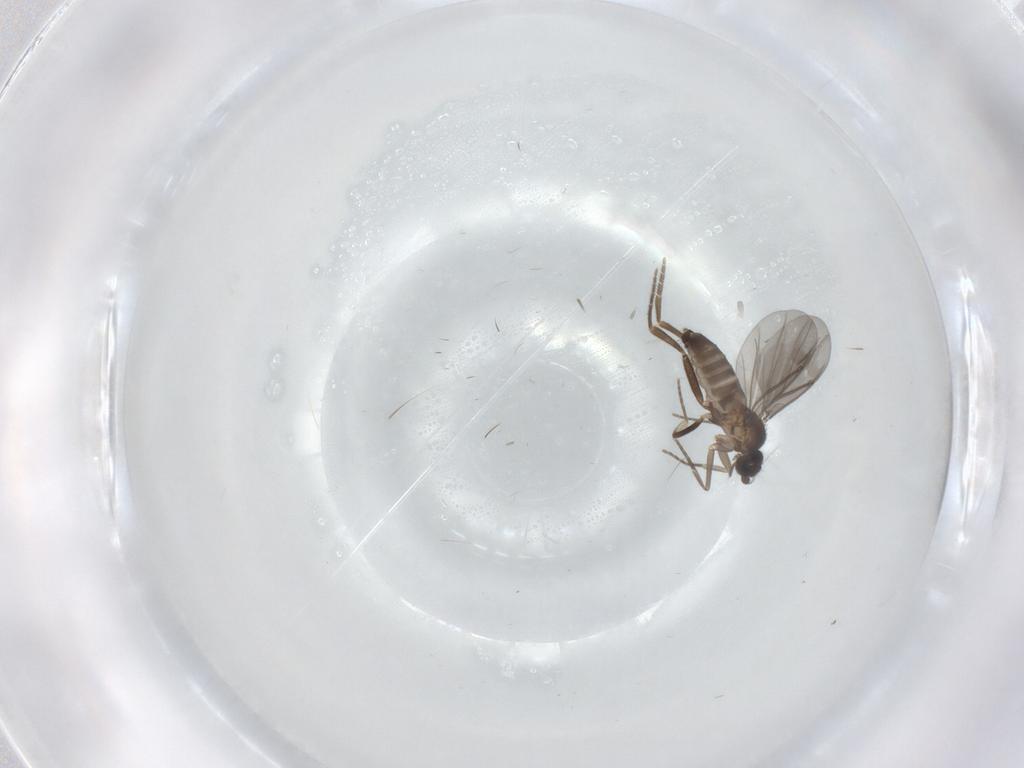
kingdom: Animalia
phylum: Arthropoda
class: Insecta
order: Diptera
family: Phoridae
